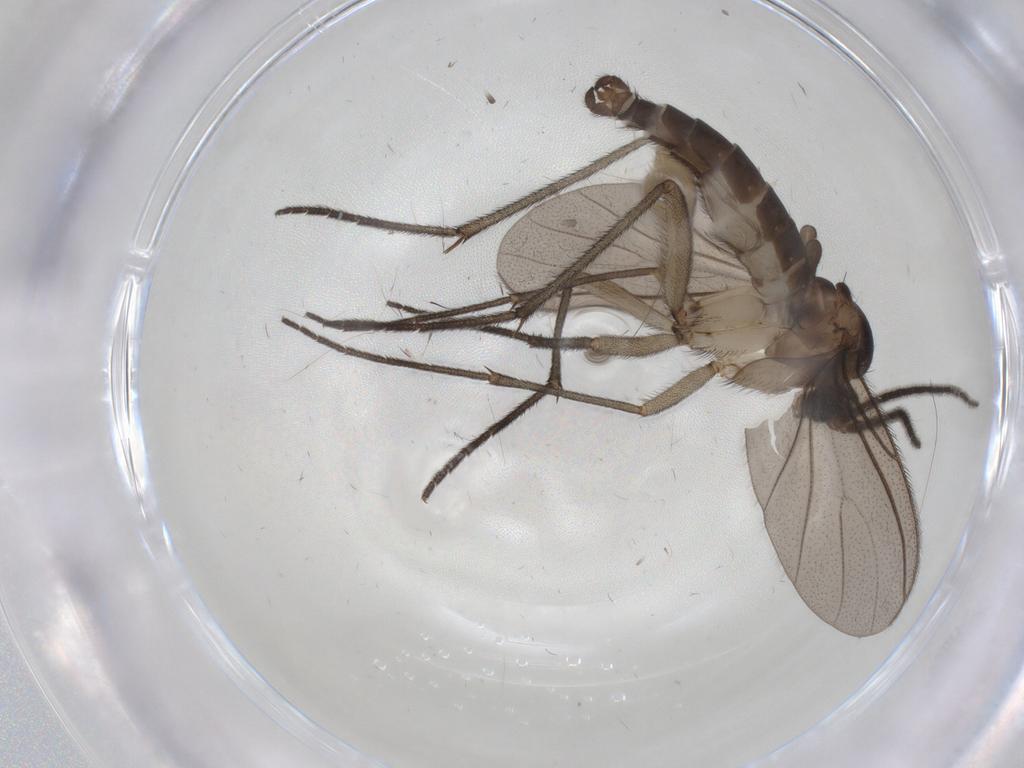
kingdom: Animalia
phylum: Arthropoda
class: Insecta
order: Diptera
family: Sciaridae
